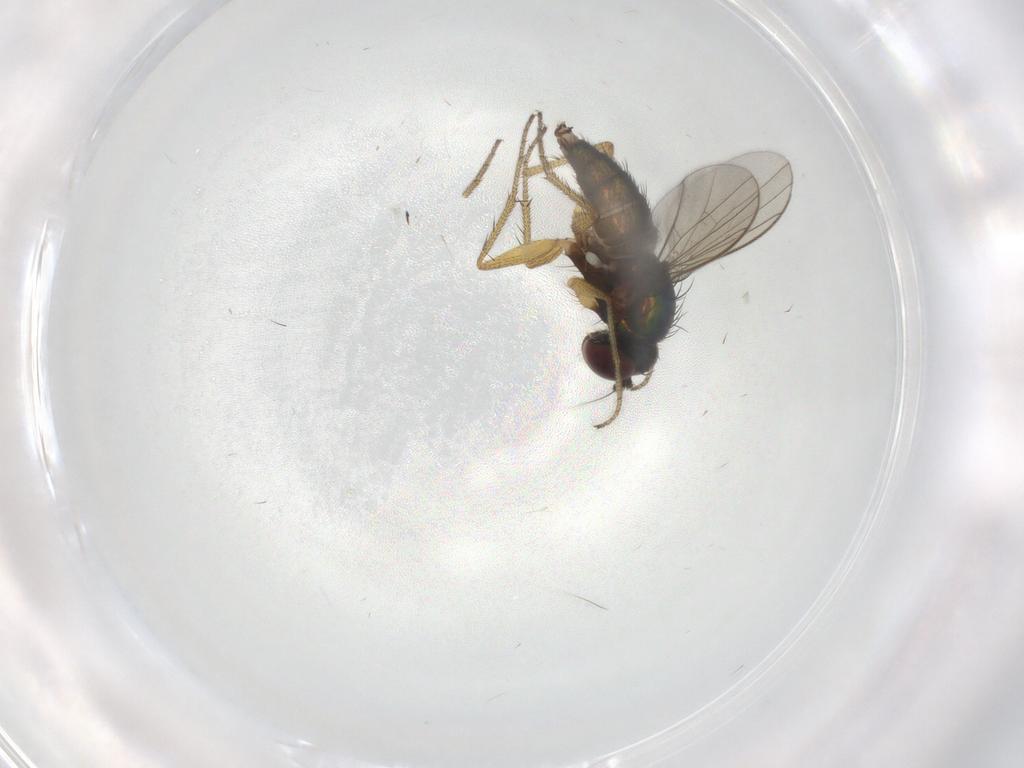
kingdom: Animalia
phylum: Arthropoda
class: Insecta
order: Diptera
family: Dolichopodidae
